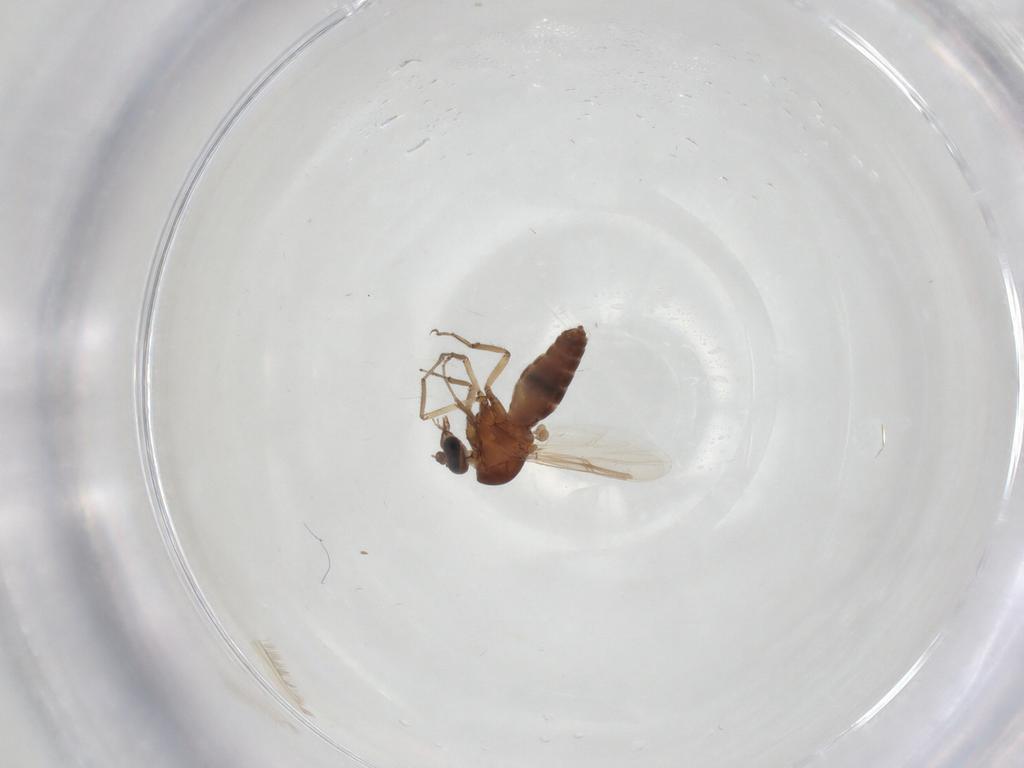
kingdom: Animalia
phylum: Arthropoda
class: Insecta
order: Diptera
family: Ceratopogonidae
